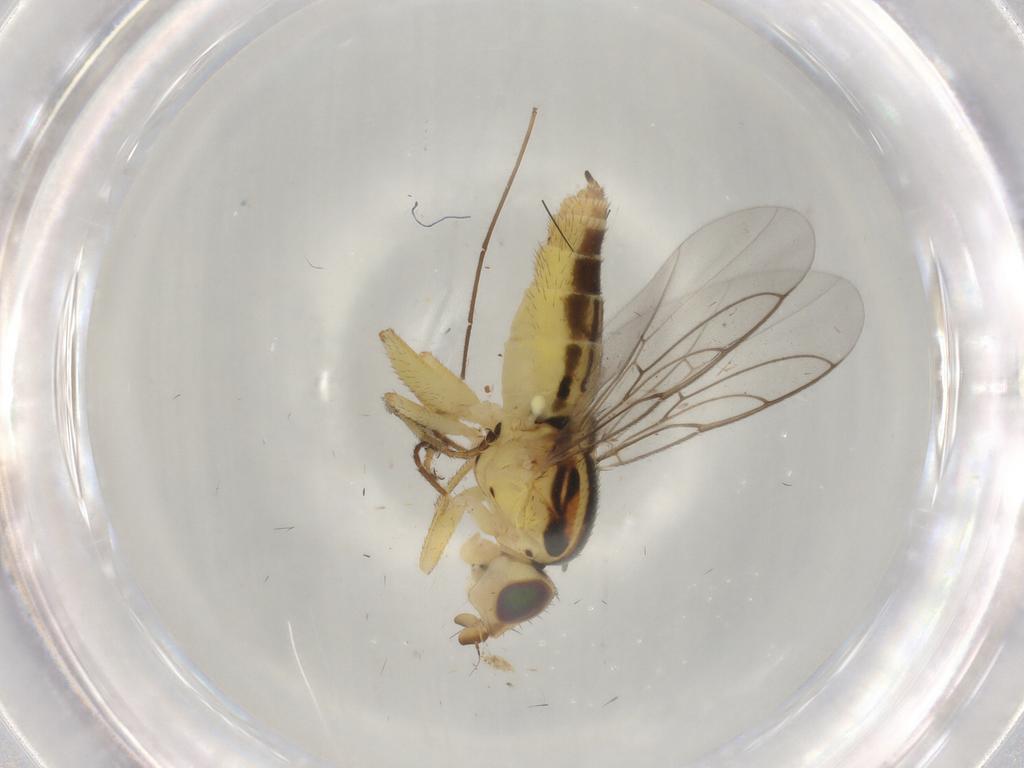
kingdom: Animalia
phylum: Arthropoda
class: Insecta
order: Diptera
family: Chloropidae
